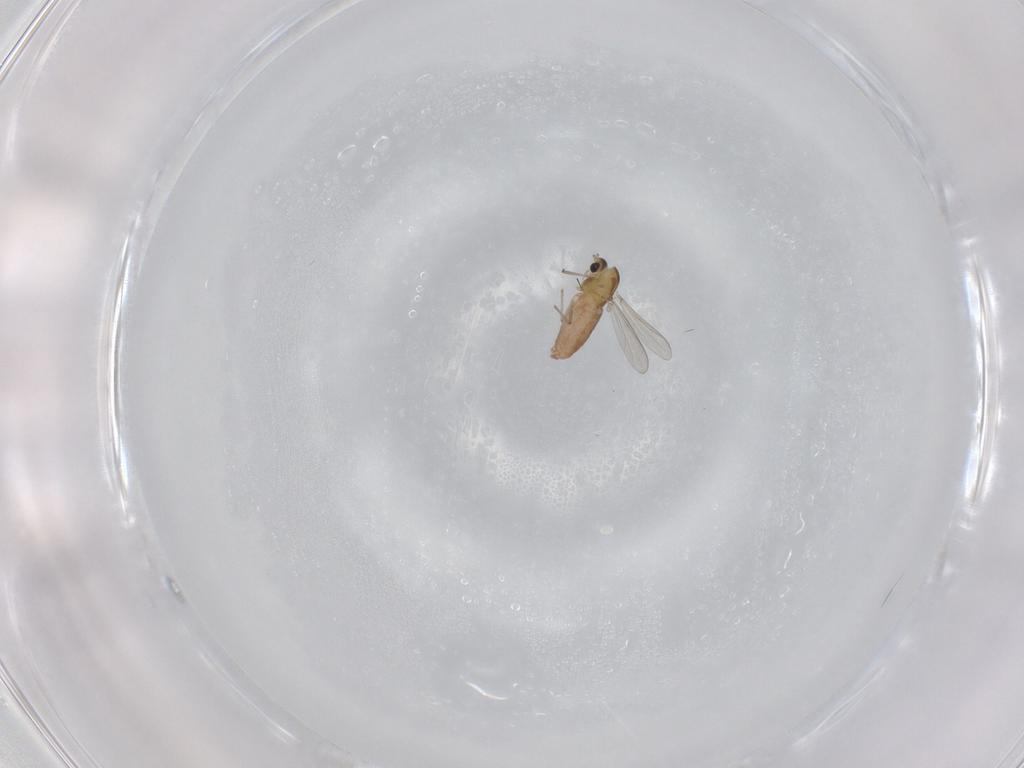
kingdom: Animalia
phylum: Arthropoda
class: Insecta
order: Diptera
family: Chironomidae
